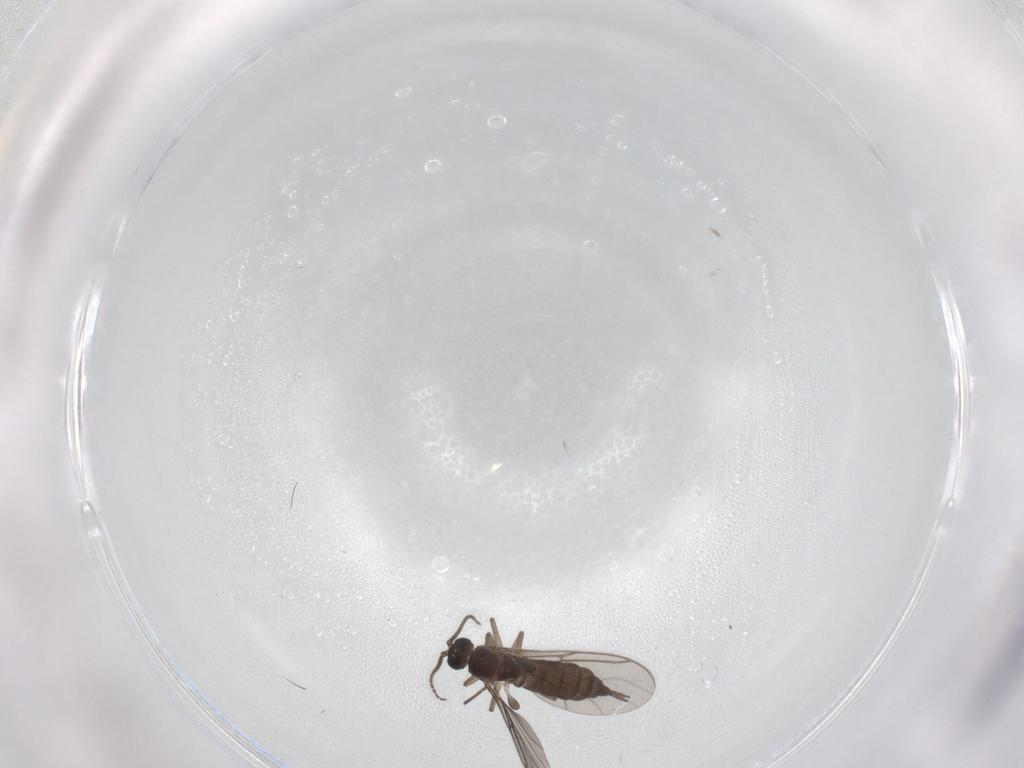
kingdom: Animalia
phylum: Arthropoda
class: Insecta
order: Diptera
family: Sciaridae
